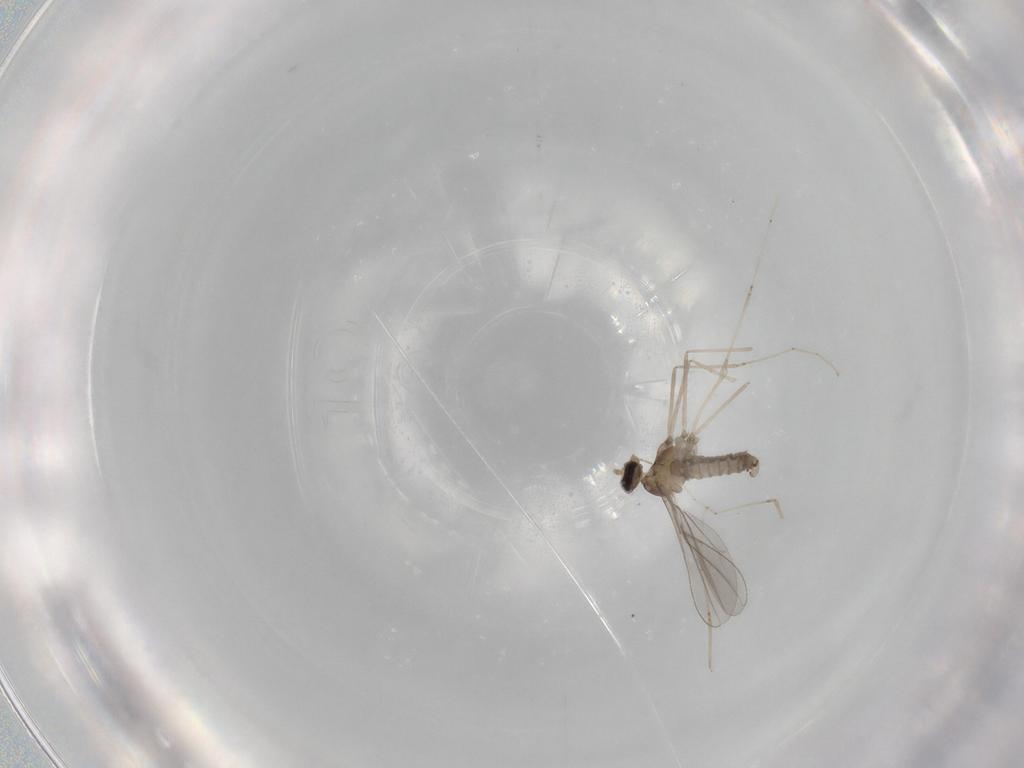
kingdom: Animalia
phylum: Arthropoda
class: Insecta
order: Diptera
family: Cecidomyiidae
